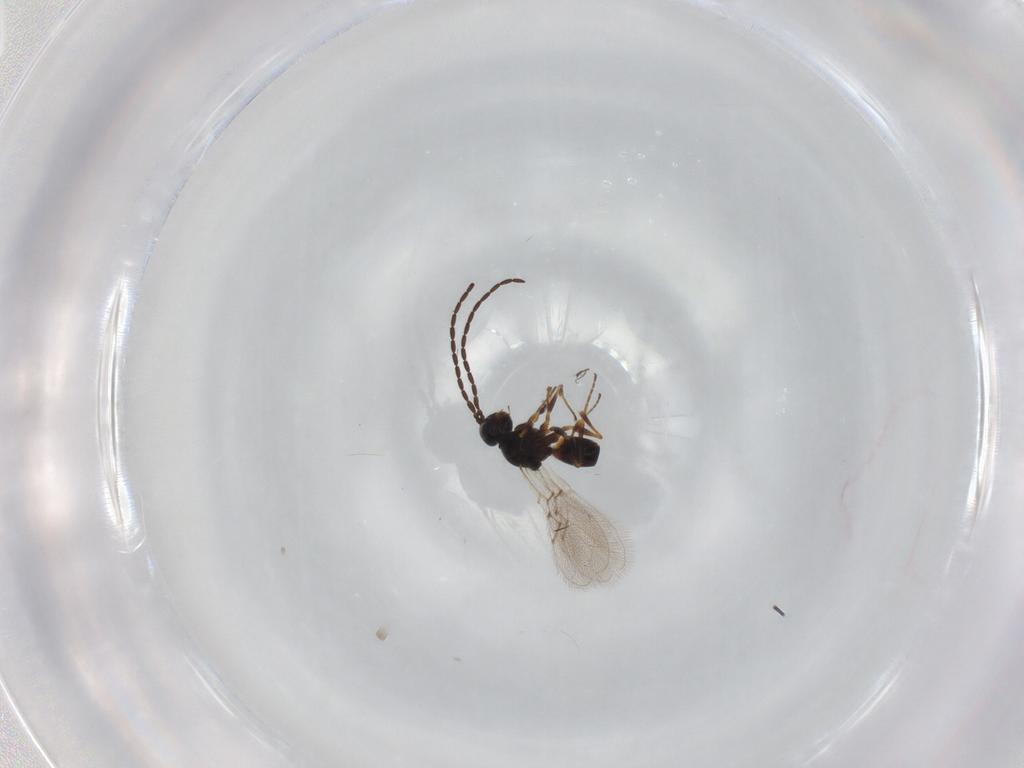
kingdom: Animalia
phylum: Arthropoda
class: Insecta
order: Hymenoptera
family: Figitidae
